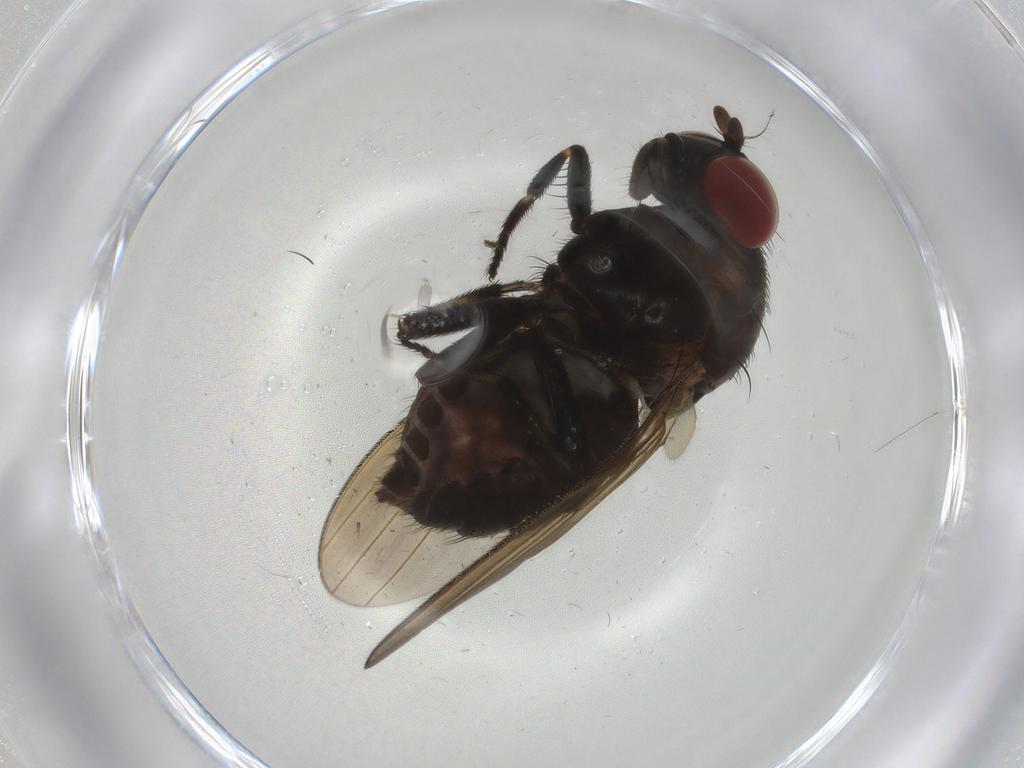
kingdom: Animalia
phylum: Arthropoda
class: Insecta
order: Diptera
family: Lauxaniidae
